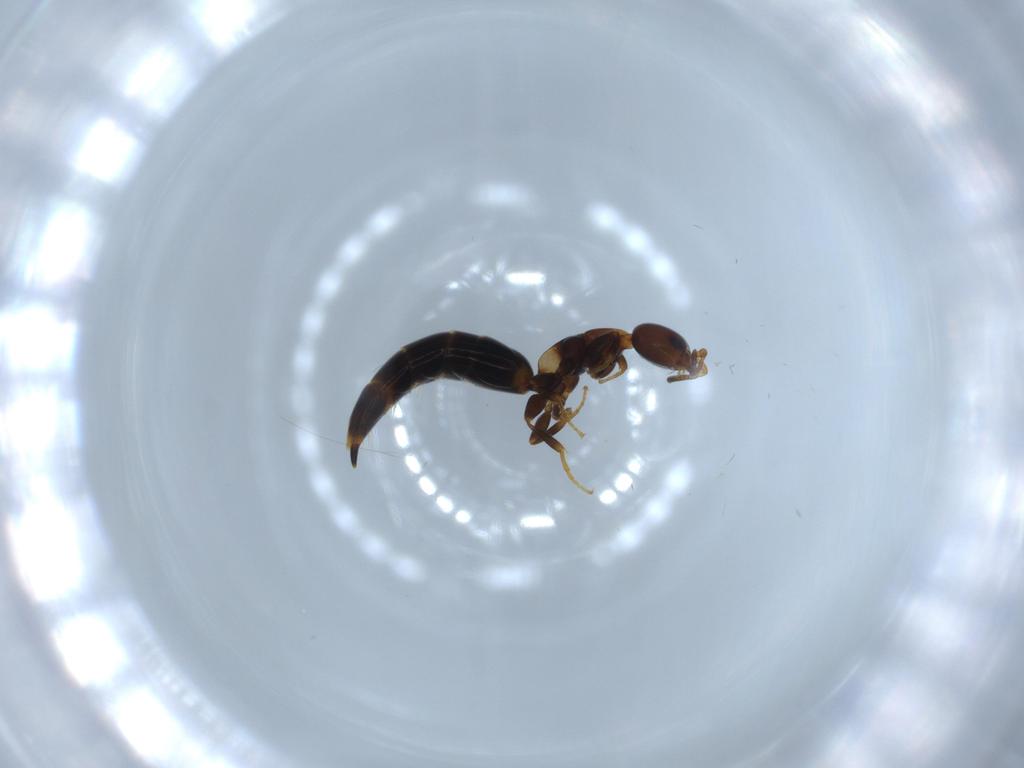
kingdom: Animalia
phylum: Arthropoda
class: Insecta
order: Hymenoptera
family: Bethylidae
